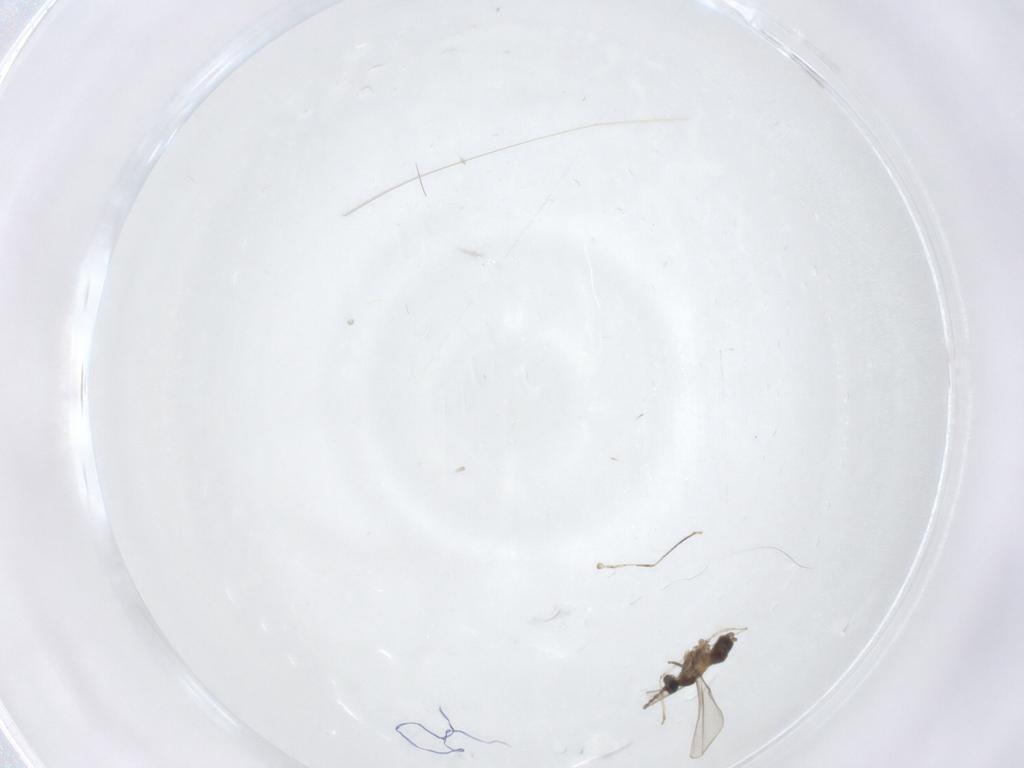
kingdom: Animalia
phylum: Arthropoda
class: Insecta
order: Diptera
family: Cecidomyiidae
